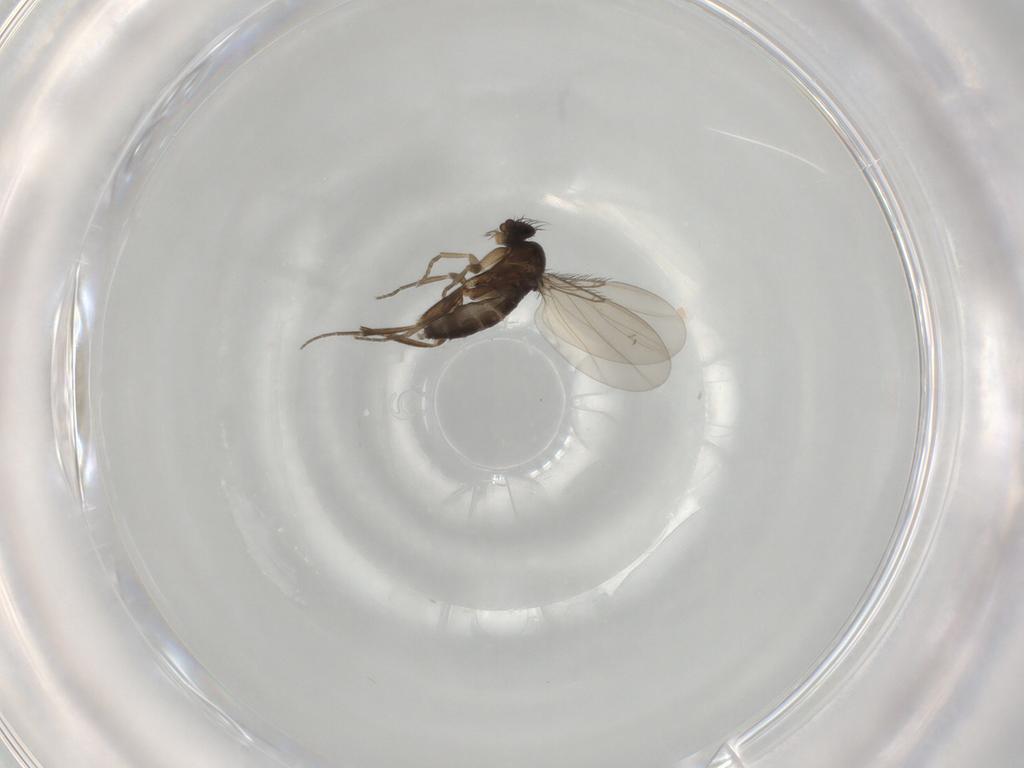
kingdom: Animalia
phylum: Arthropoda
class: Insecta
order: Diptera
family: Phoridae
